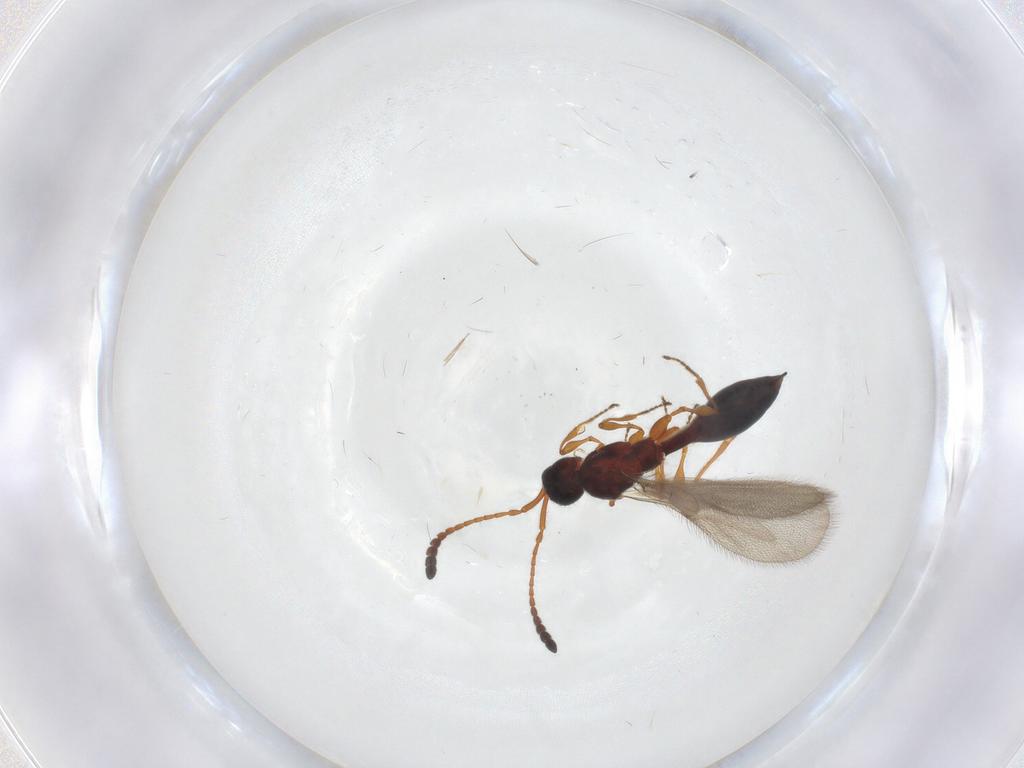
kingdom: Animalia
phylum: Arthropoda
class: Insecta
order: Hymenoptera
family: Diapriidae
